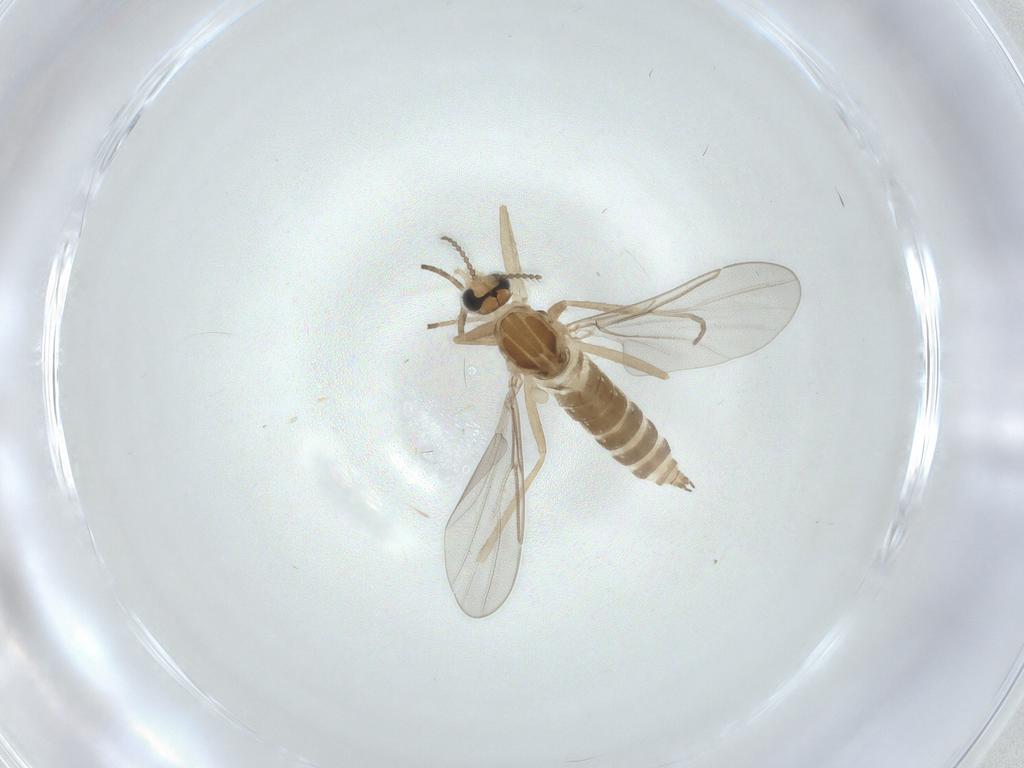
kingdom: Animalia
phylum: Arthropoda
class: Insecta
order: Diptera
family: Cecidomyiidae
